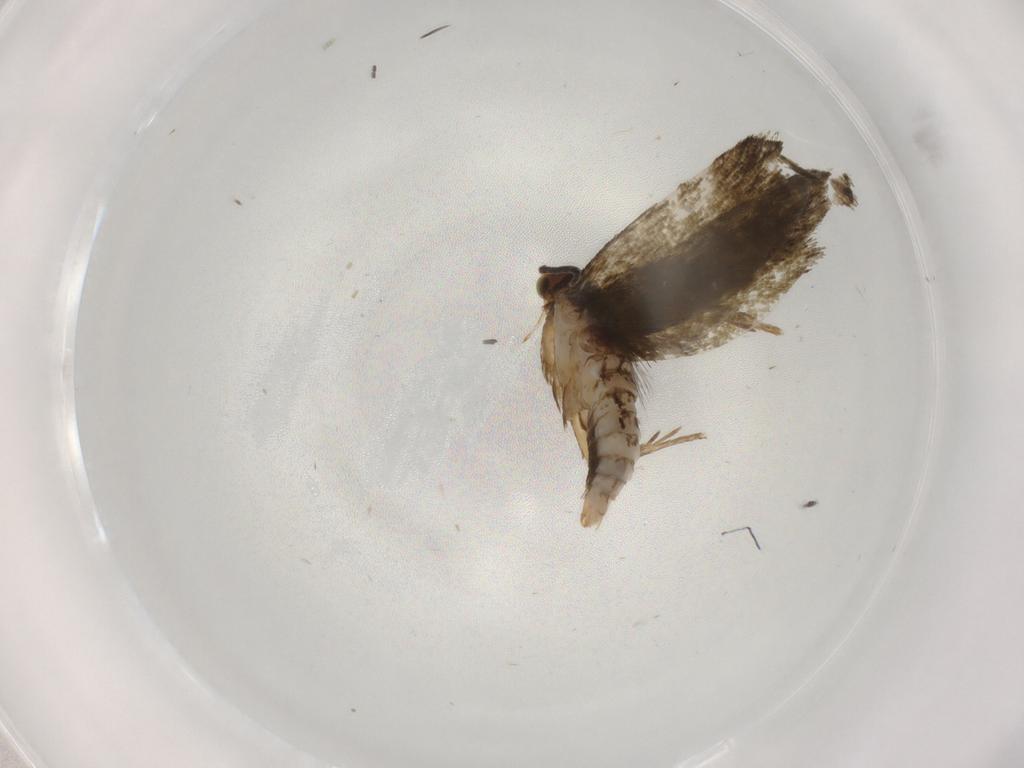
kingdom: Animalia
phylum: Arthropoda
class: Insecta
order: Lepidoptera
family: Tineidae
